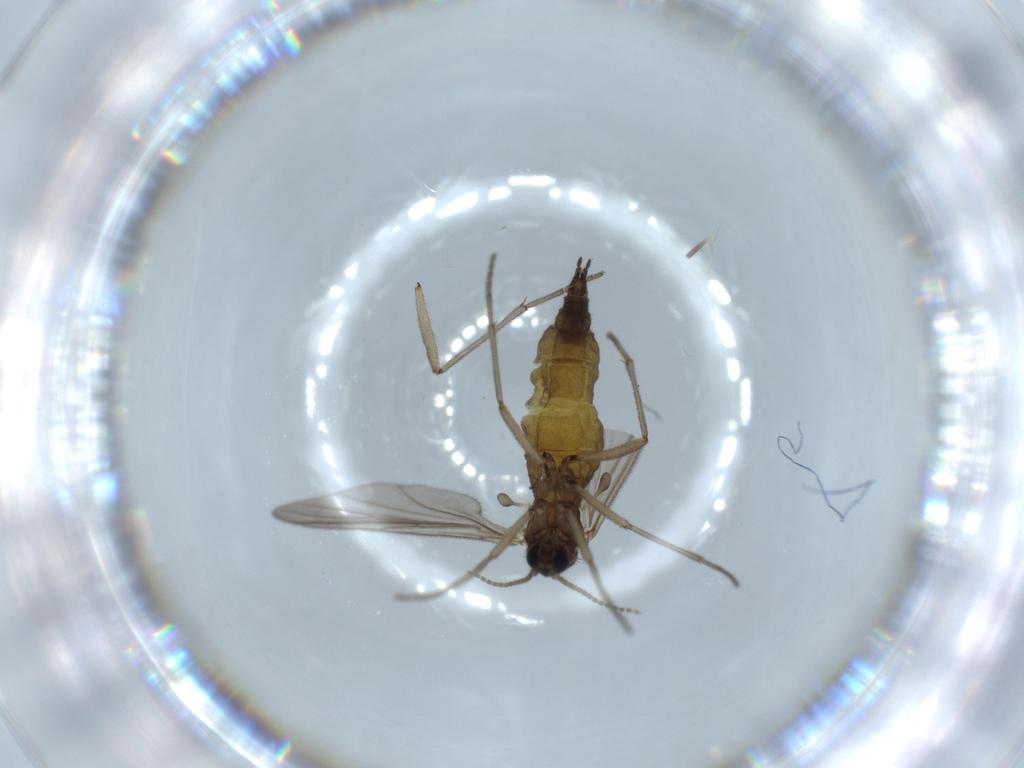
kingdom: Animalia
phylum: Arthropoda
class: Insecta
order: Diptera
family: Sciaridae
